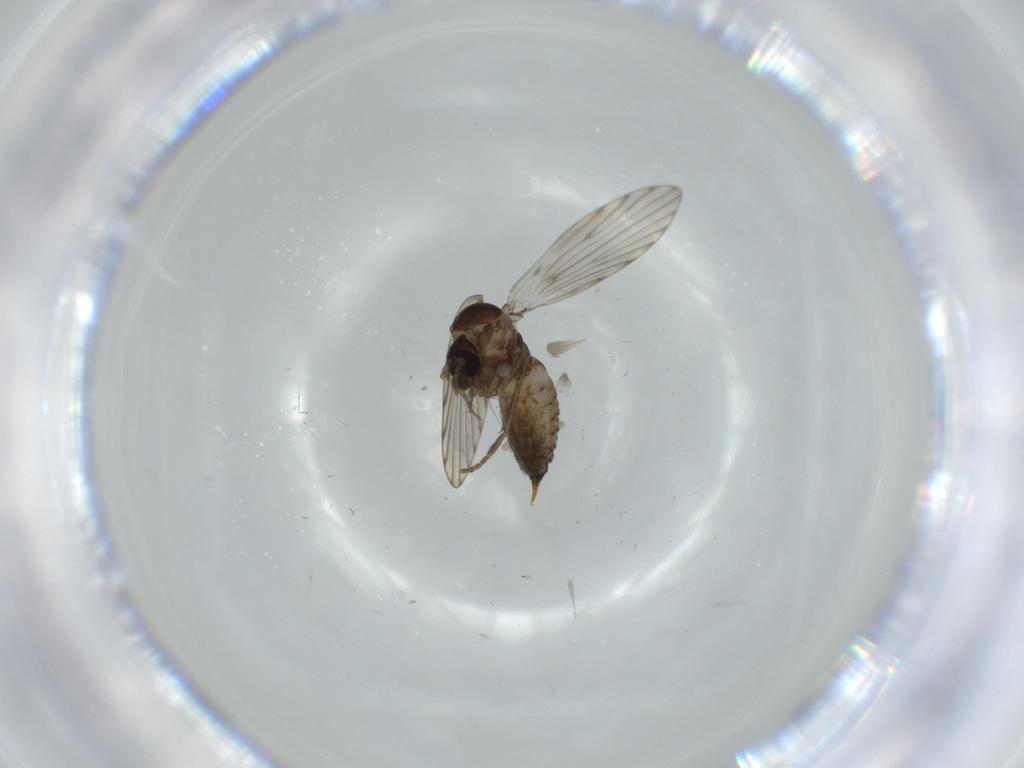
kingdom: Animalia
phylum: Arthropoda
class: Insecta
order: Diptera
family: Psychodidae
